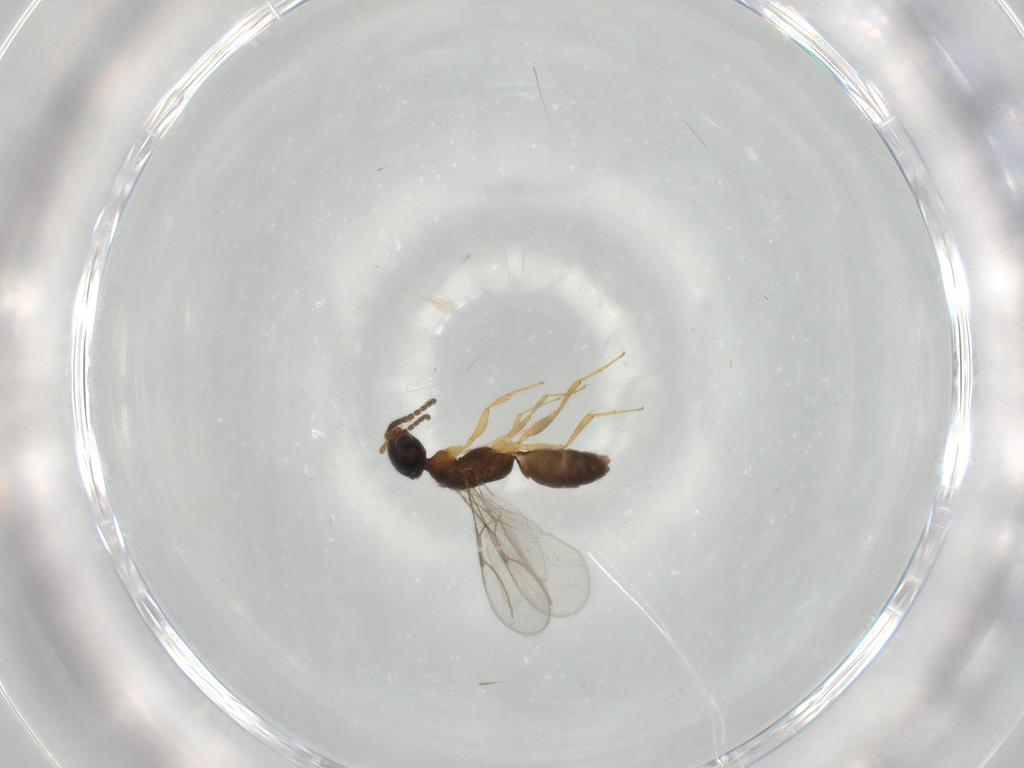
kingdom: Animalia
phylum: Arthropoda
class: Insecta
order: Hymenoptera
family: Bethylidae
